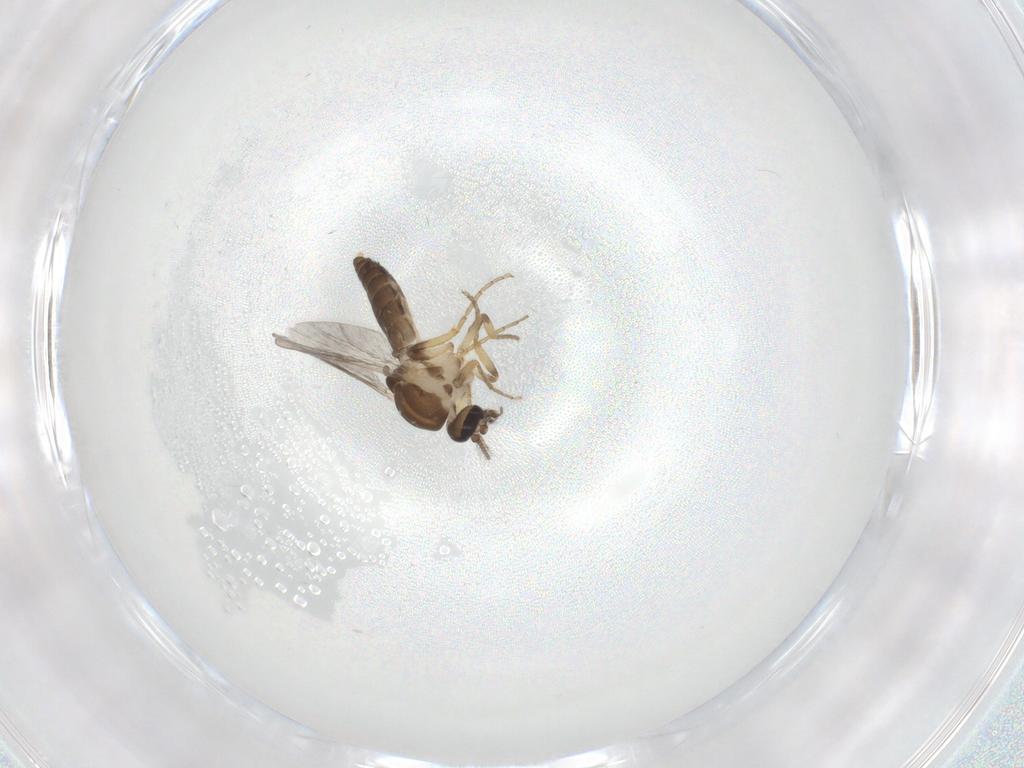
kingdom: Animalia
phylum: Arthropoda
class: Insecta
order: Diptera
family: Ceratopogonidae
